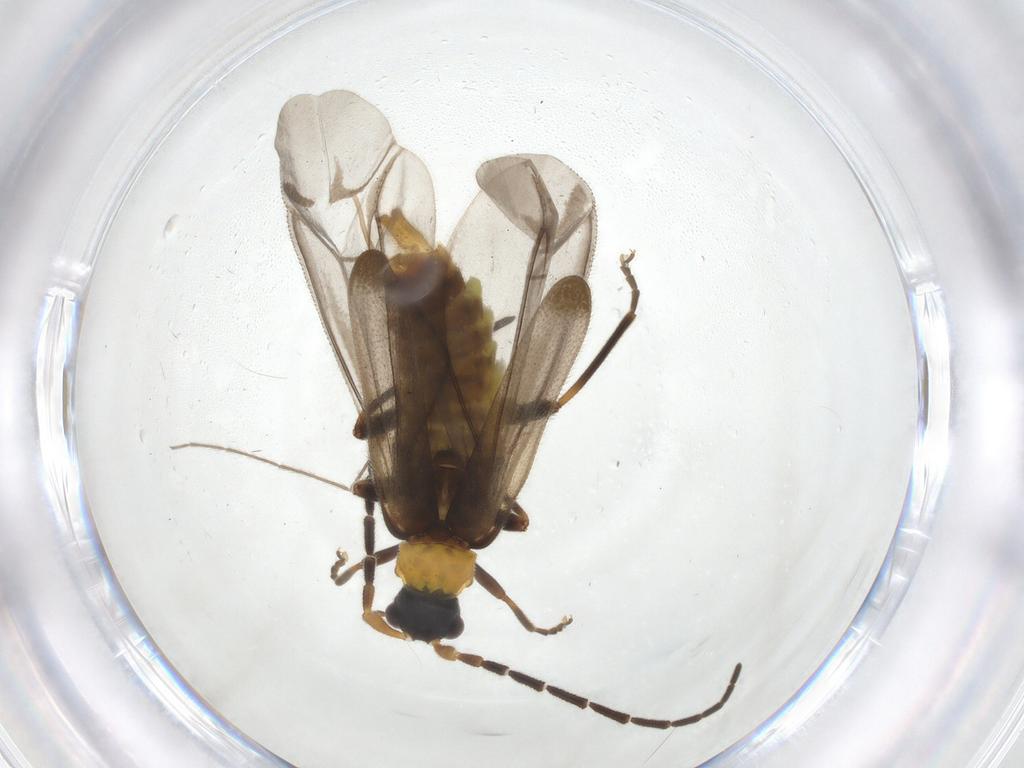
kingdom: Animalia
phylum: Arthropoda
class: Insecta
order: Coleoptera
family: Cantharidae
